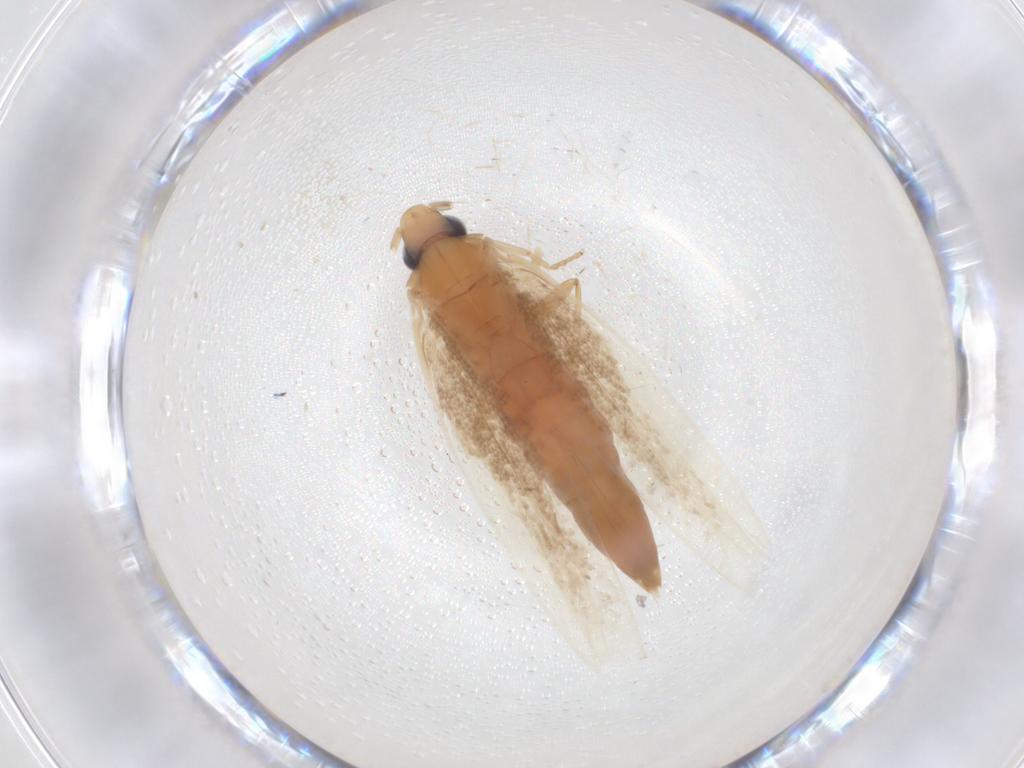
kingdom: Animalia
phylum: Arthropoda
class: Insecta
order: Lepidoptera
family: Tineidae
